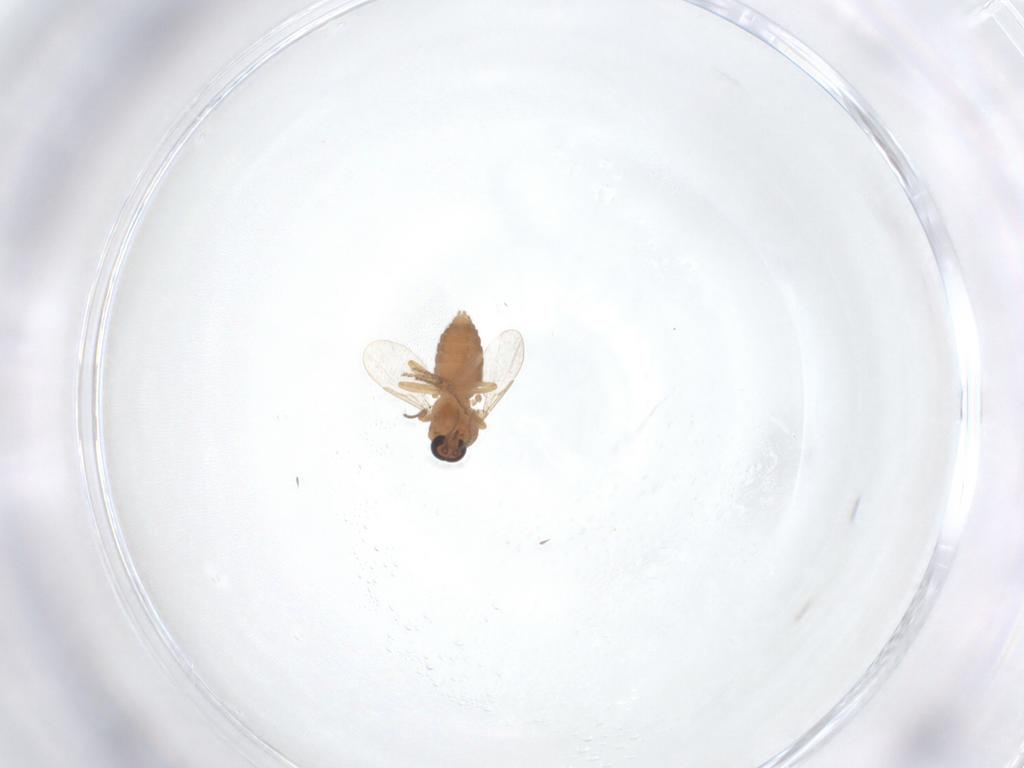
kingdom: Animalia
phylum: Arthropoda
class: Insecta
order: Diptera
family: Ceratopogonidae
